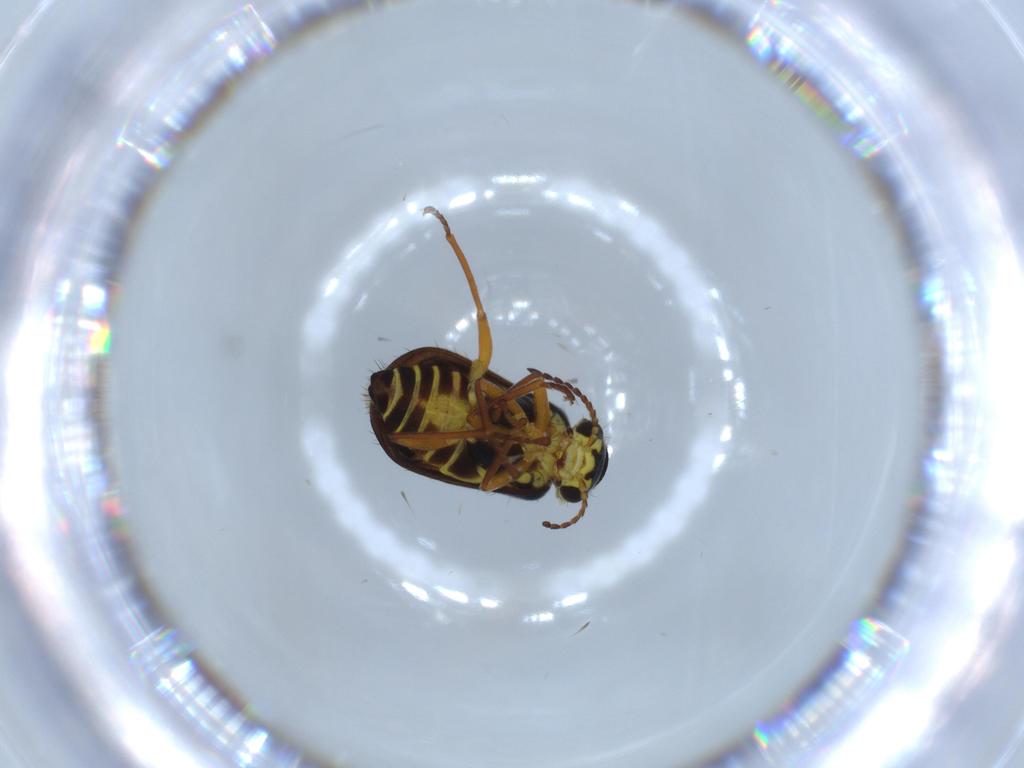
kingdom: Animalia
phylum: Arthropoda
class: Insecta
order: Coleoptera
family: Melyridae
